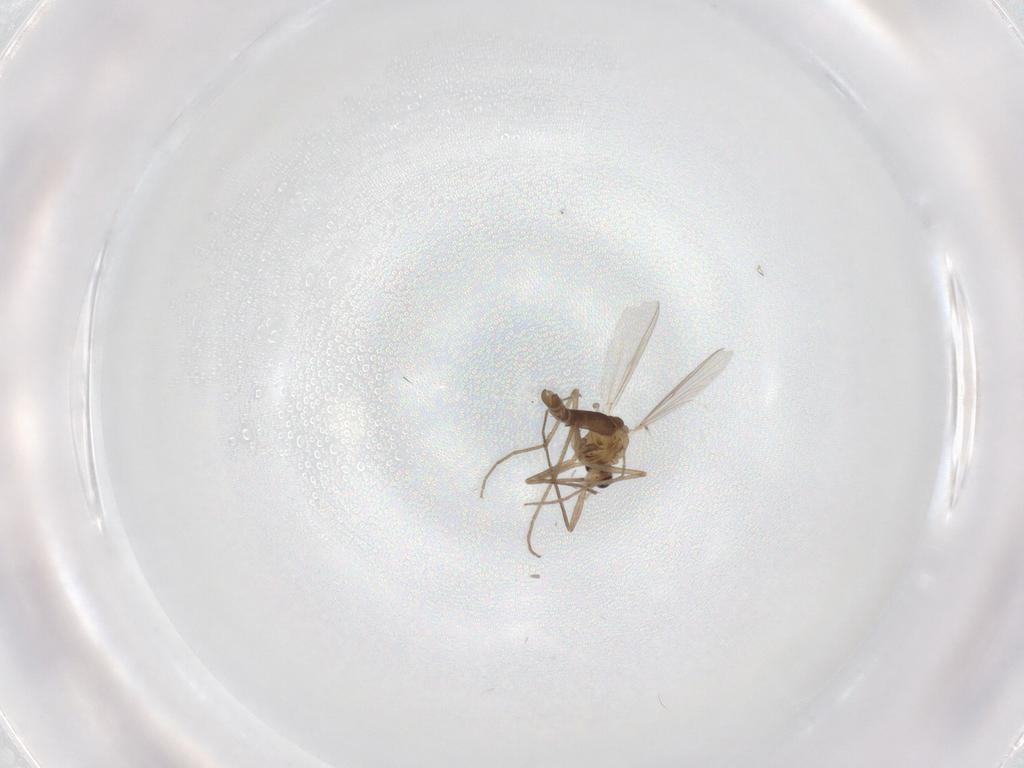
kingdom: Animalia
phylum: Arthropoda
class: Insecta
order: Diptera
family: Chironomidae
